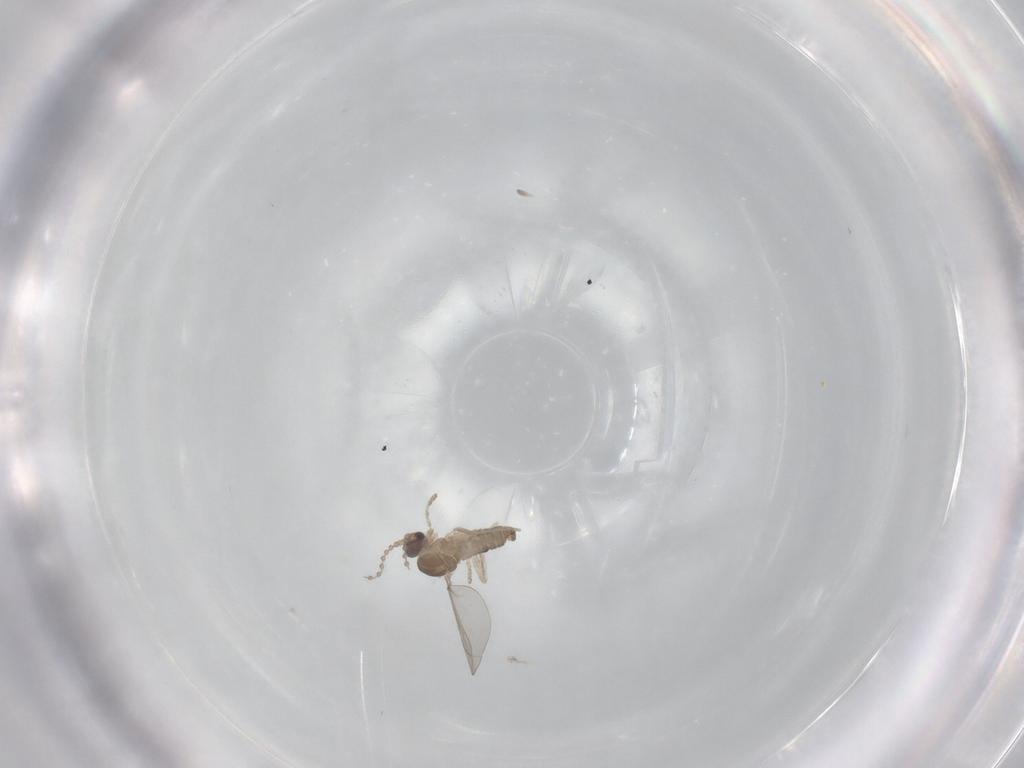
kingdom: Animalia
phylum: Arthropoda
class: Insecta
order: Diptera
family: Cecidomyiidae
